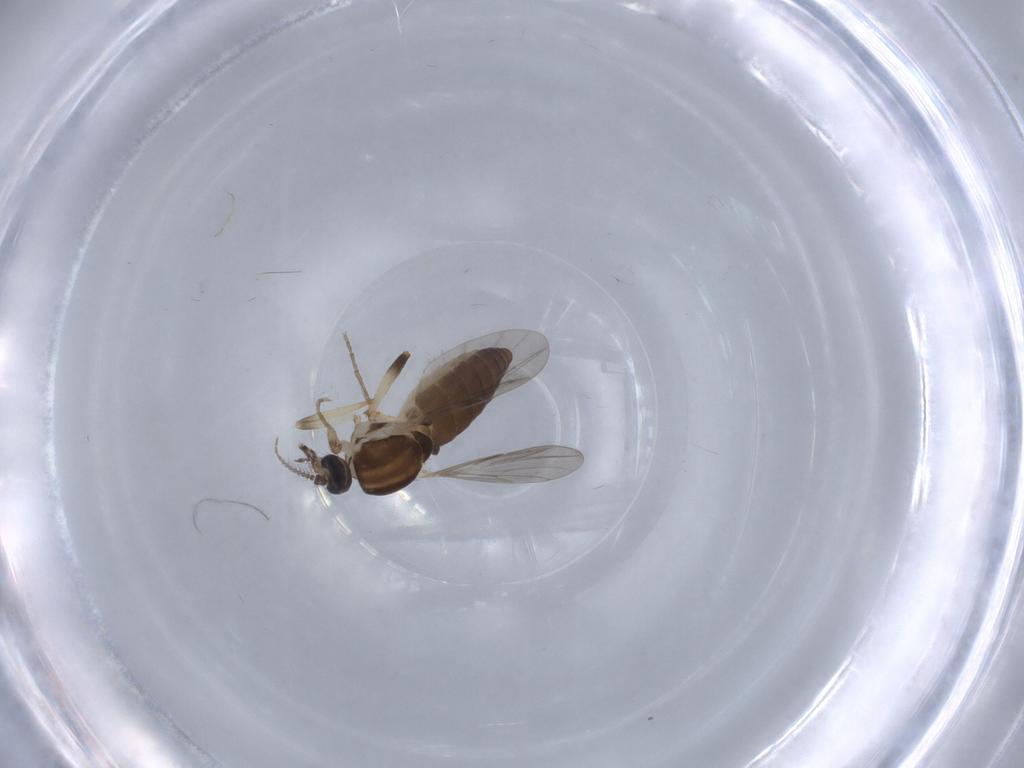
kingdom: Animalia
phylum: Arthropoda
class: Insecta
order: Diptera
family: Ceratopogonidae
